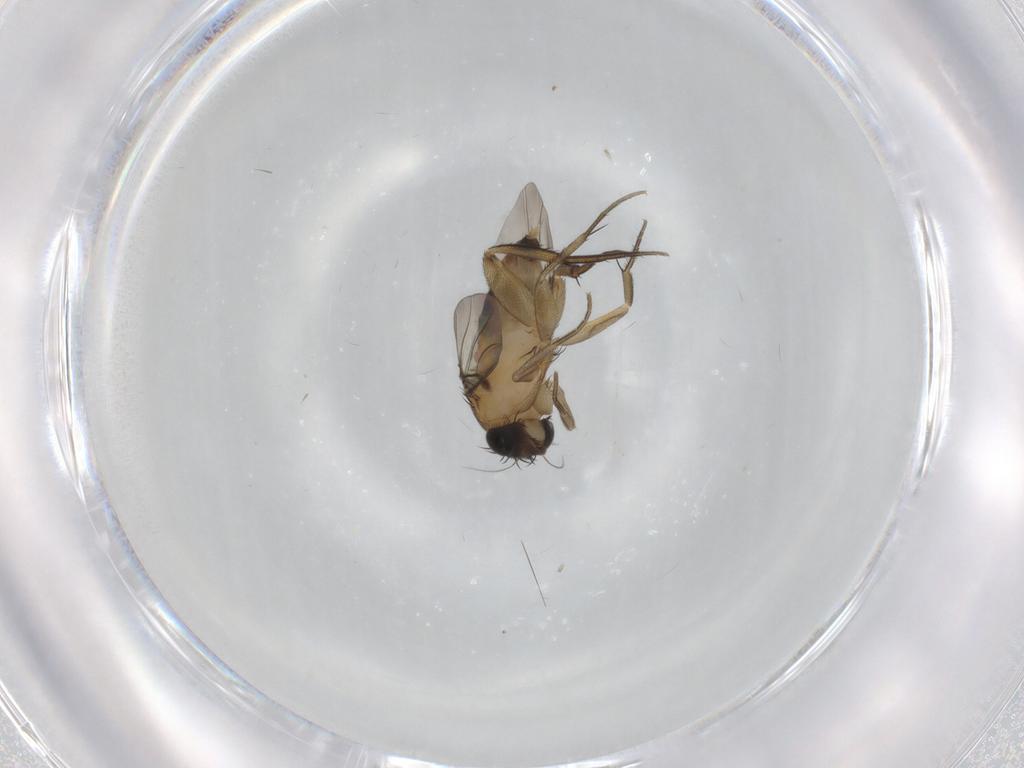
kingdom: Animalia
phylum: Arthropoda
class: Insecta
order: Diptera
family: Phoridae
